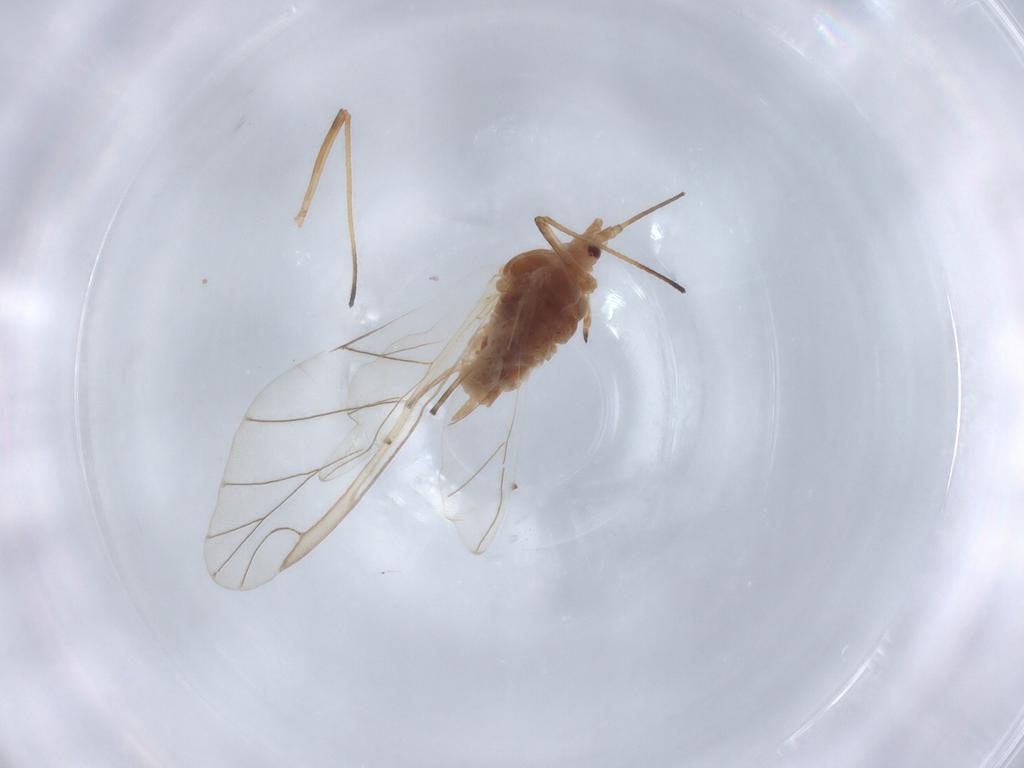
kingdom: Animalia
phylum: Arthropoda
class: Insecta
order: Hemiptera
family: Aphididae
